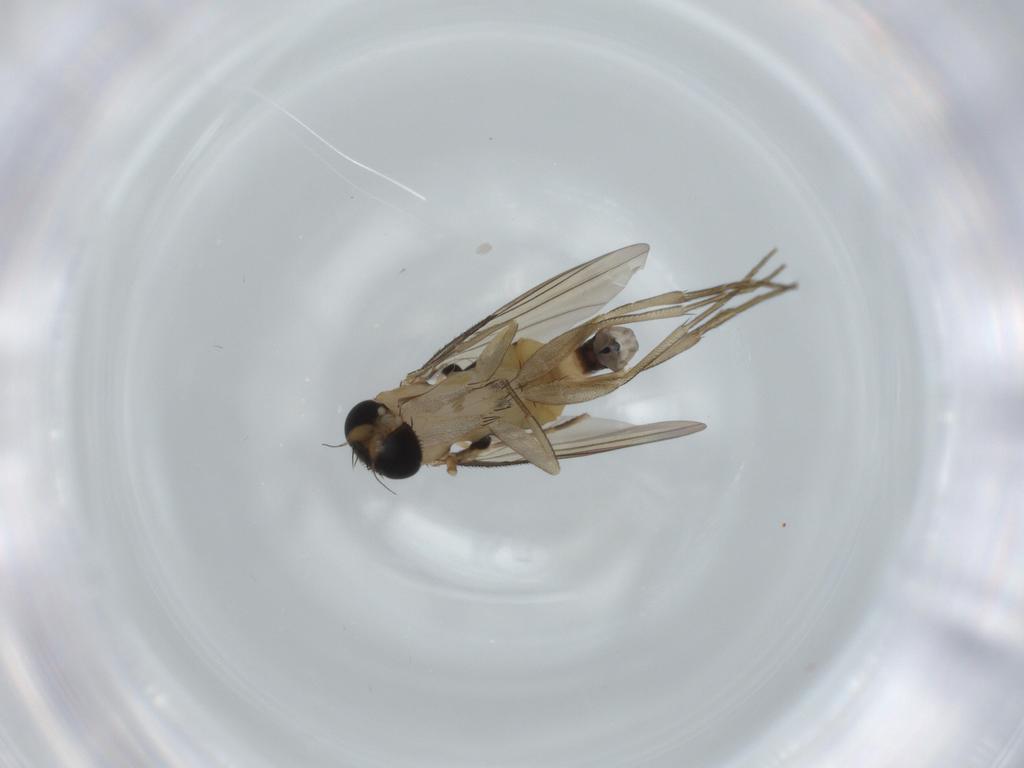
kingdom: Animalia
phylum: Arthropoda
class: Insecta
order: Diptera
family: Phoridae
